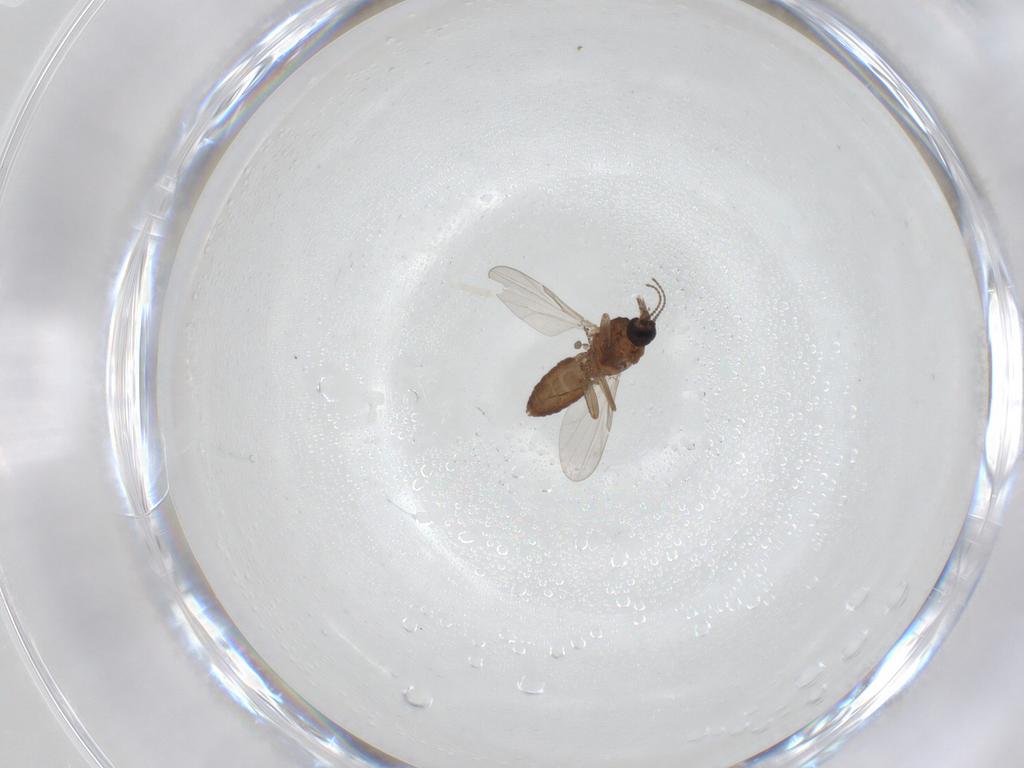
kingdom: Animalia
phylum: Arthropoda
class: Insecta
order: Diptera
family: Ceratopogonidae
